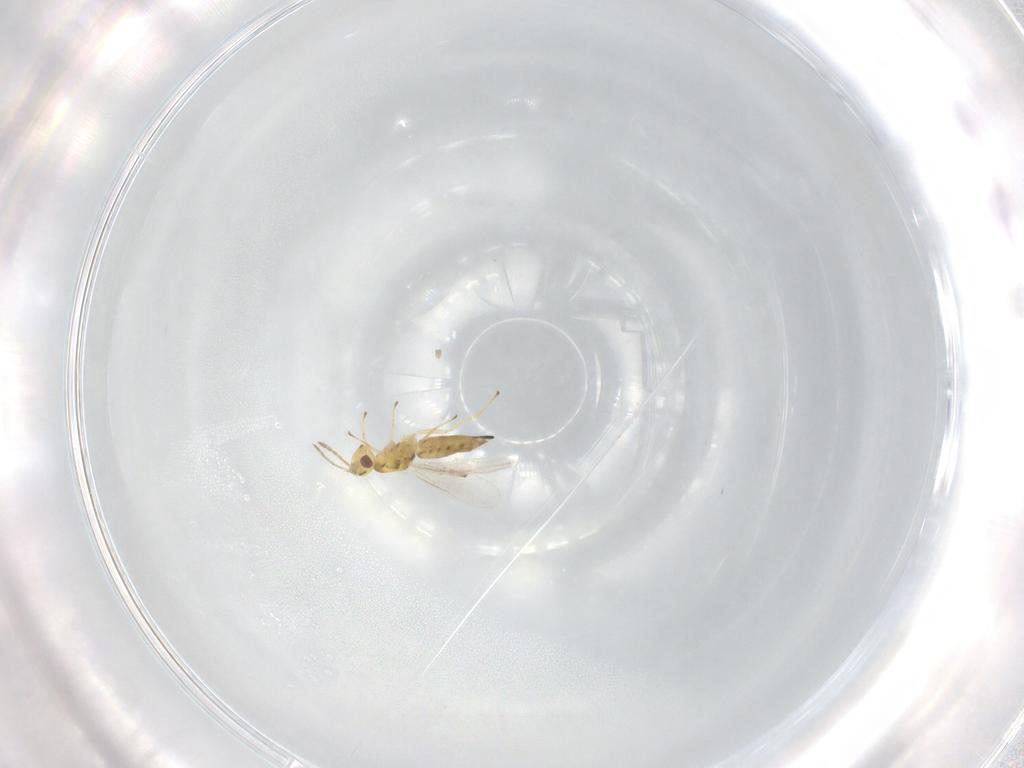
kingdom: Animalia
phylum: Arthropoda
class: Insecta
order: Hymenoptera
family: Eulophidae
